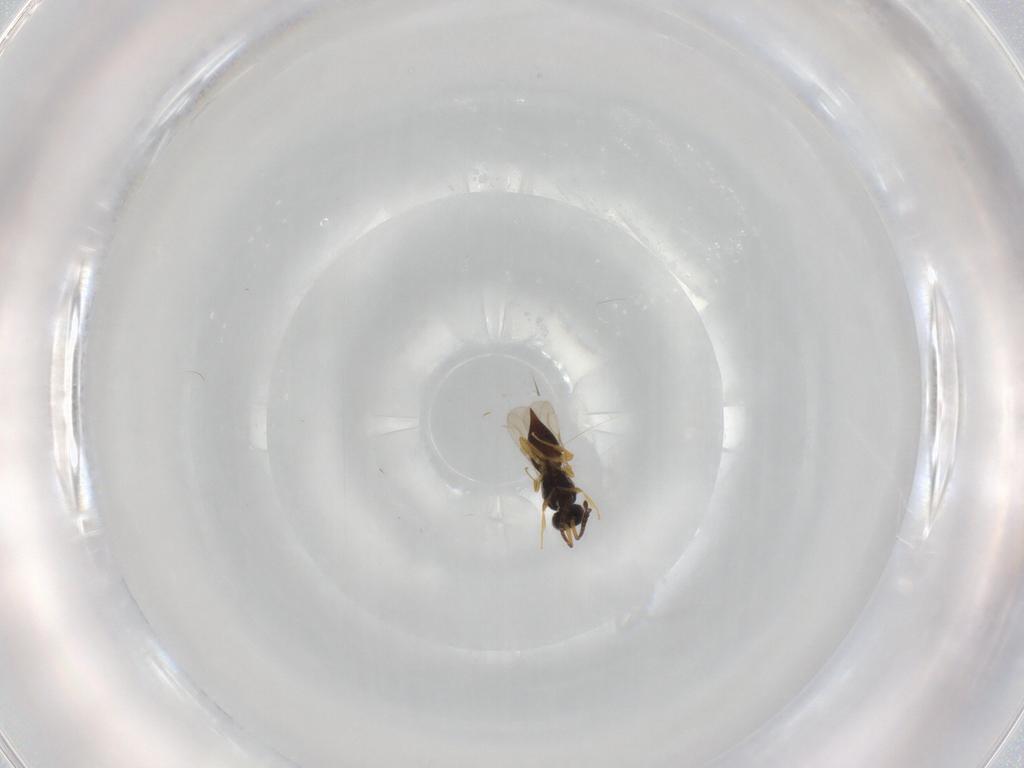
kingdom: Animalia
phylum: Arthropoda
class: Insecta
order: Hymenoptera
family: Ceraphronidae
